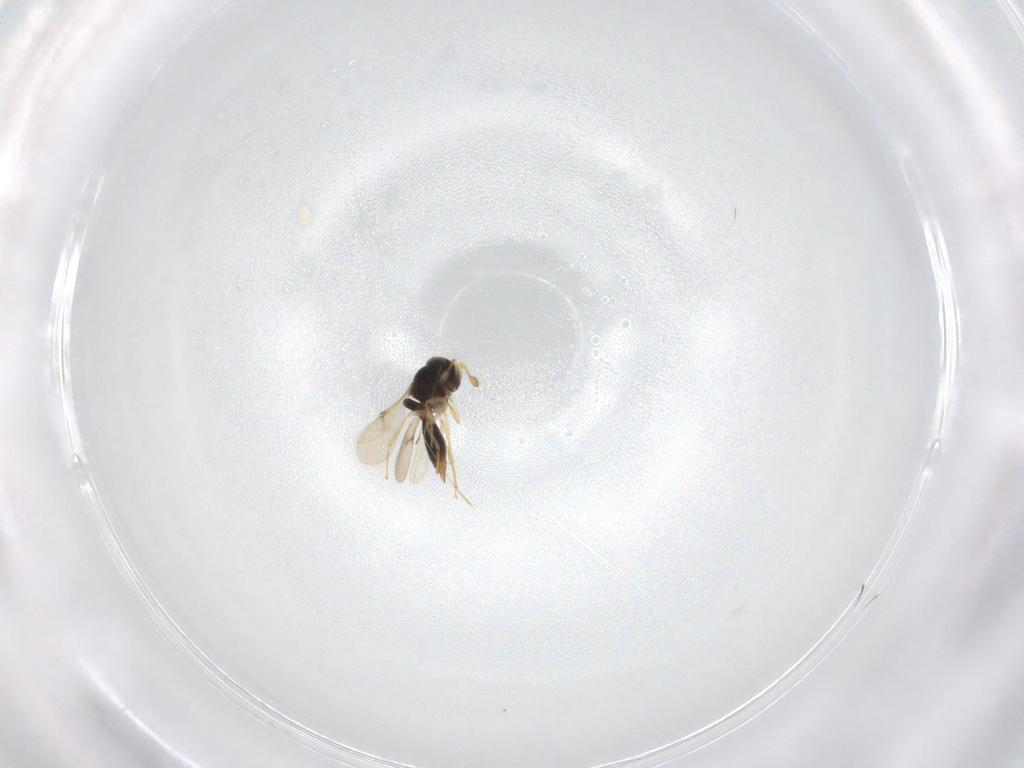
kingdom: Animalia
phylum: Arthropoda
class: Insecta
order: Hymenoptera
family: Scelionidae
